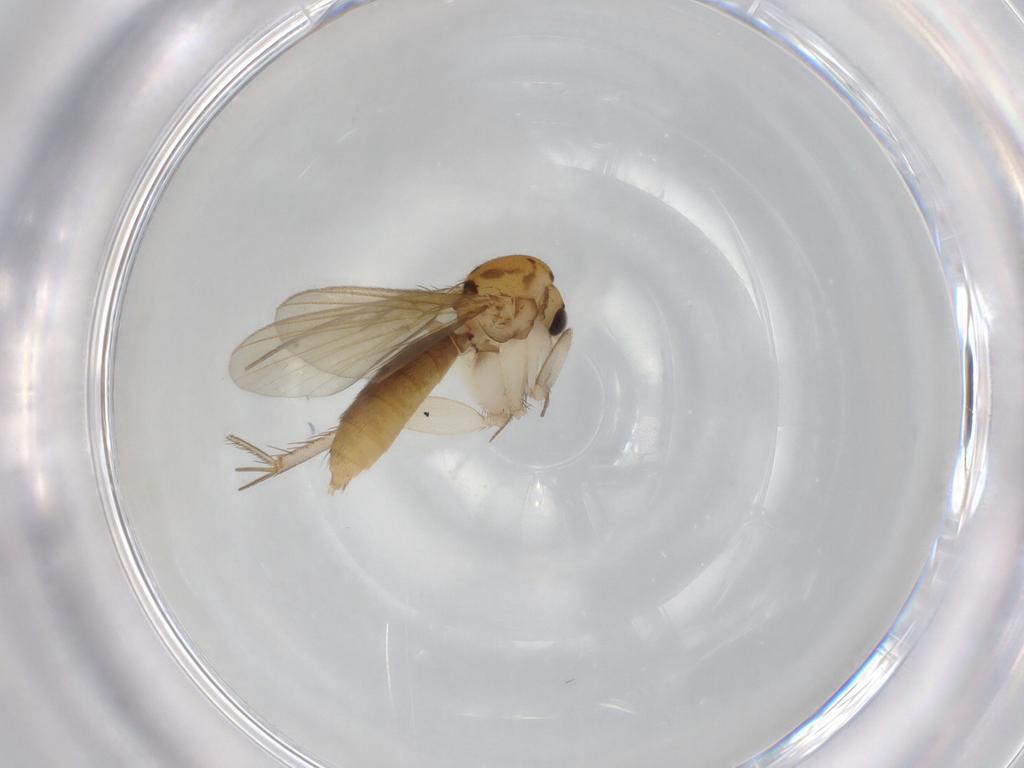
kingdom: Animalia
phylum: Arthropoda
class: Insecta
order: Diptera
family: Mycetophilidae
